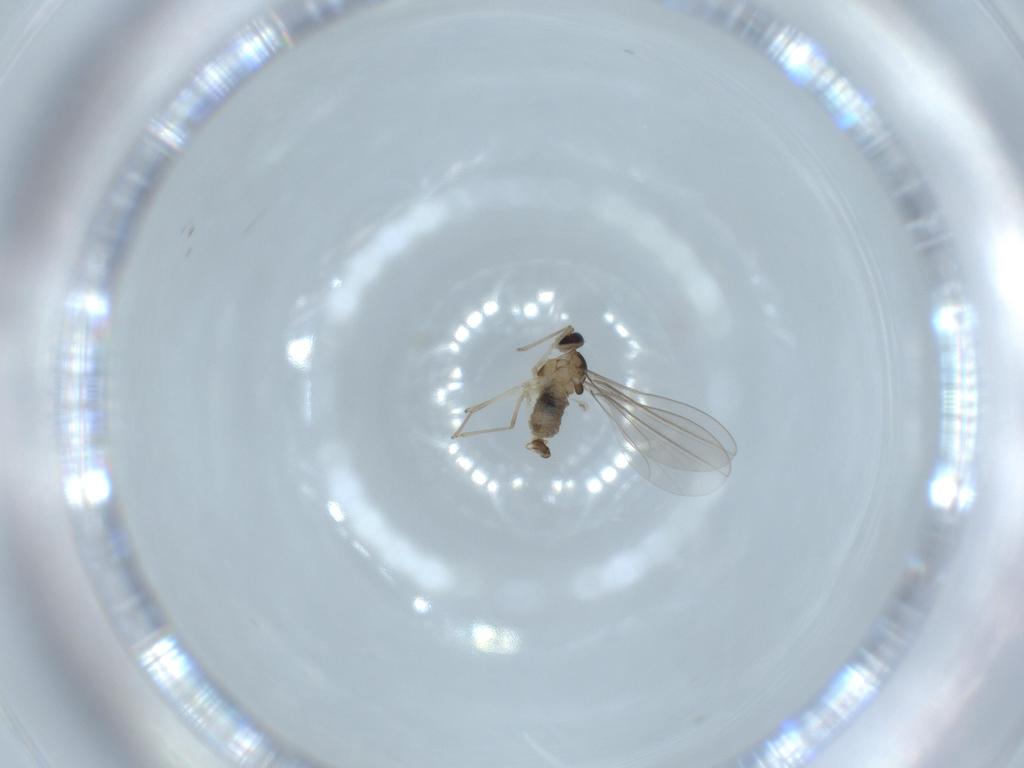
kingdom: Animalia
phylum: Arthropoda
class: Insecta
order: Diptera
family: Cecidomyiidae
